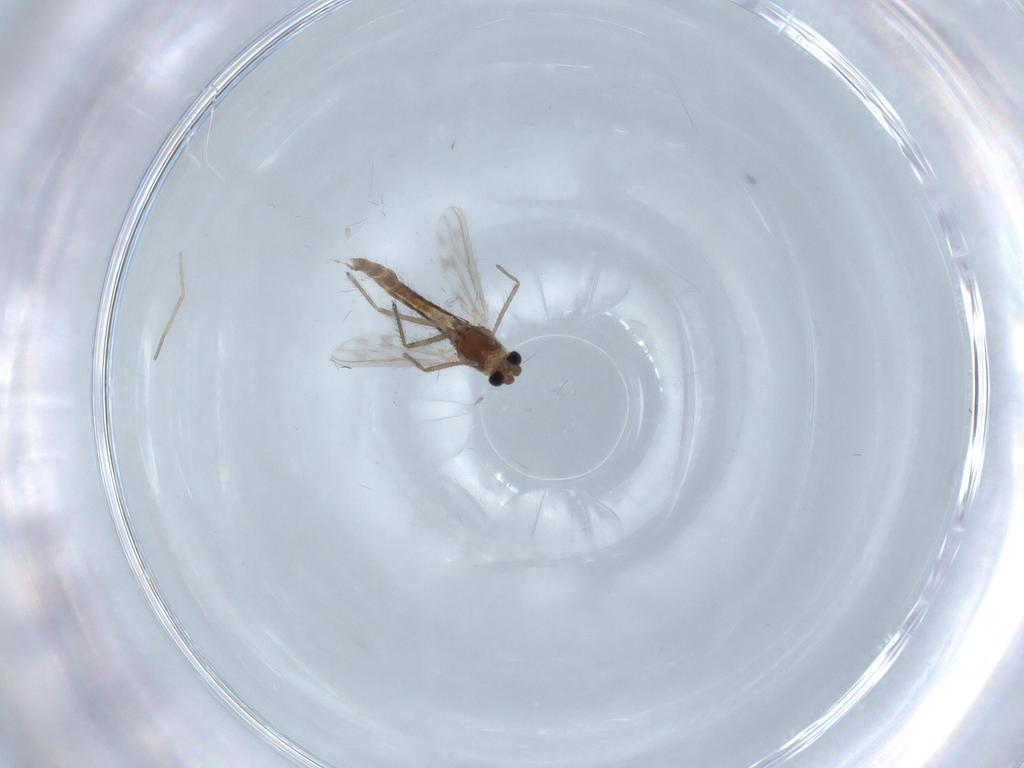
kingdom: Animalia
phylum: Arthropoda
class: Insecta
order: Diptera
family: Chironomidae
